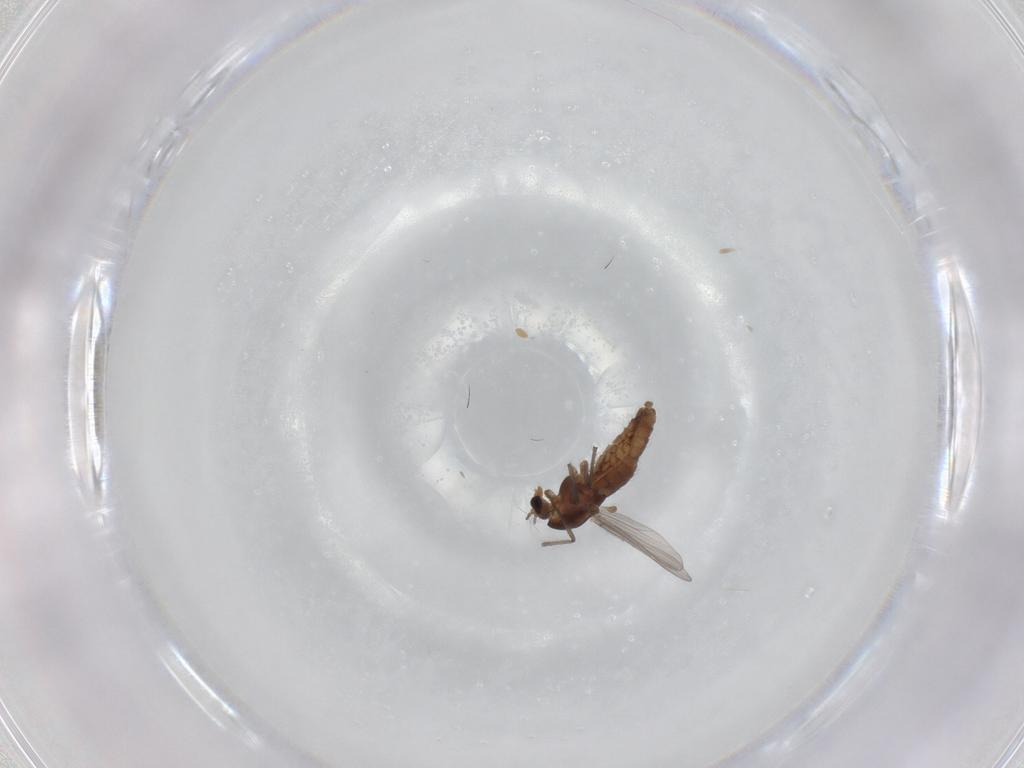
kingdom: Animalia
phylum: Arthropoda
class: Insecta
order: Diptera
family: Chironomidae
